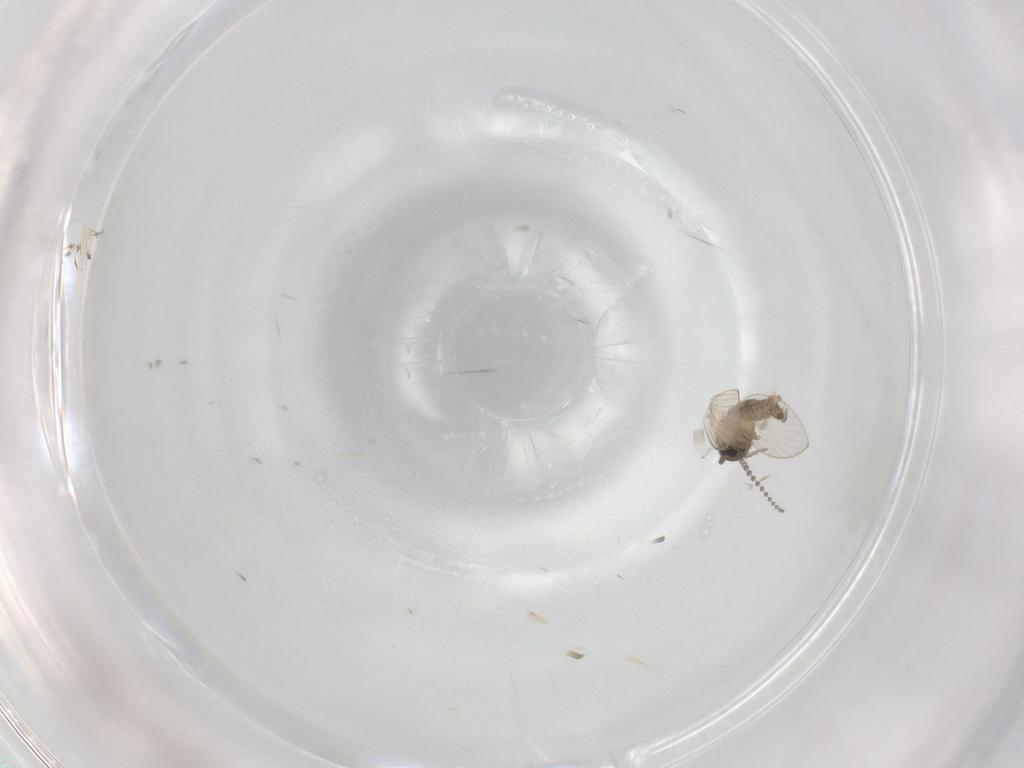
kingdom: Animalia
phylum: Arthropoda
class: Insecta
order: Diptera
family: Psychodidae
